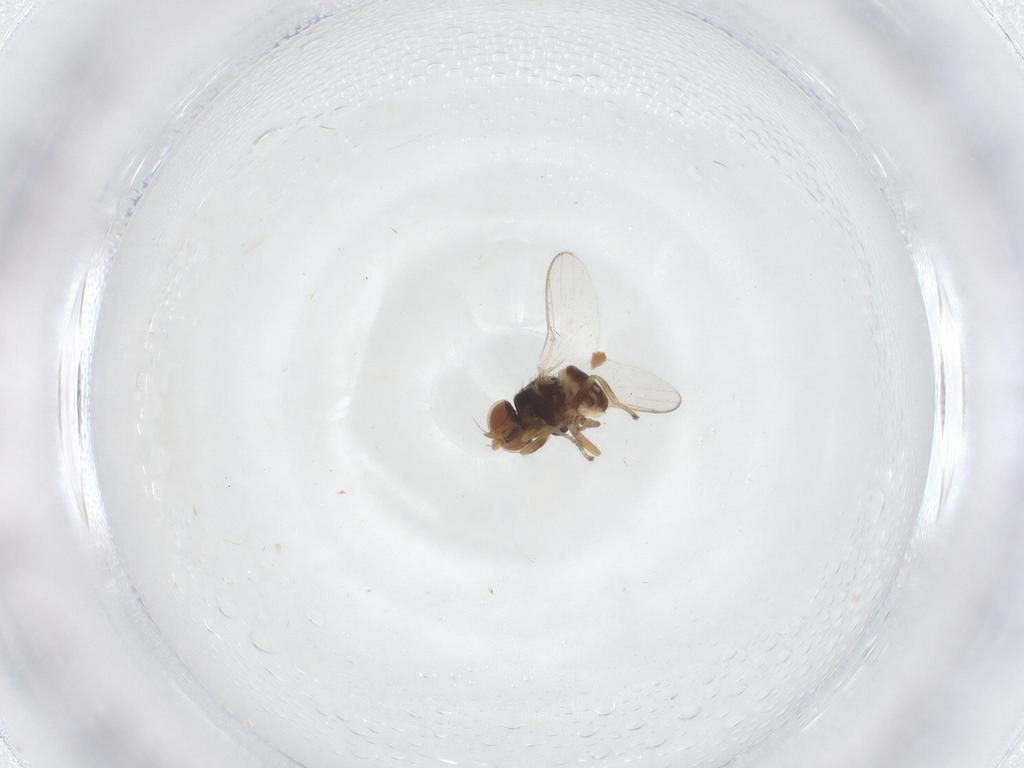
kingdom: Animalia
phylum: Arthropoda
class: Insecta
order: Diptera
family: Chloropidae
